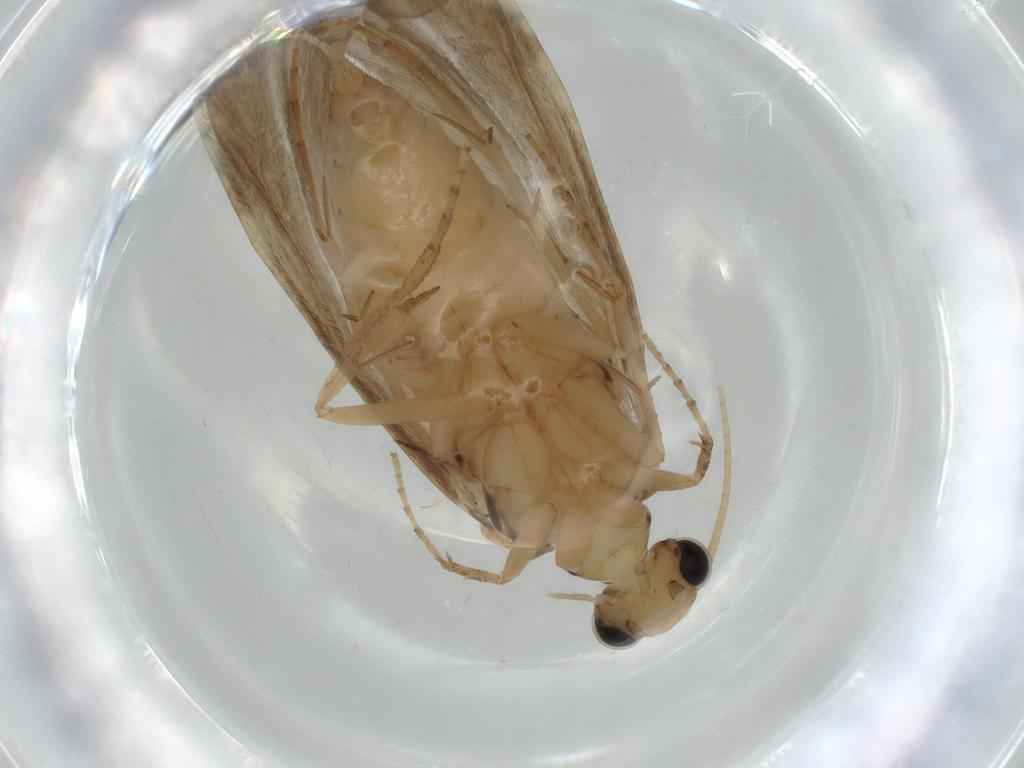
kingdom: Animalia
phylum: Arthropoda
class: Insecta
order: Trichoptera
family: Ecnomidae
